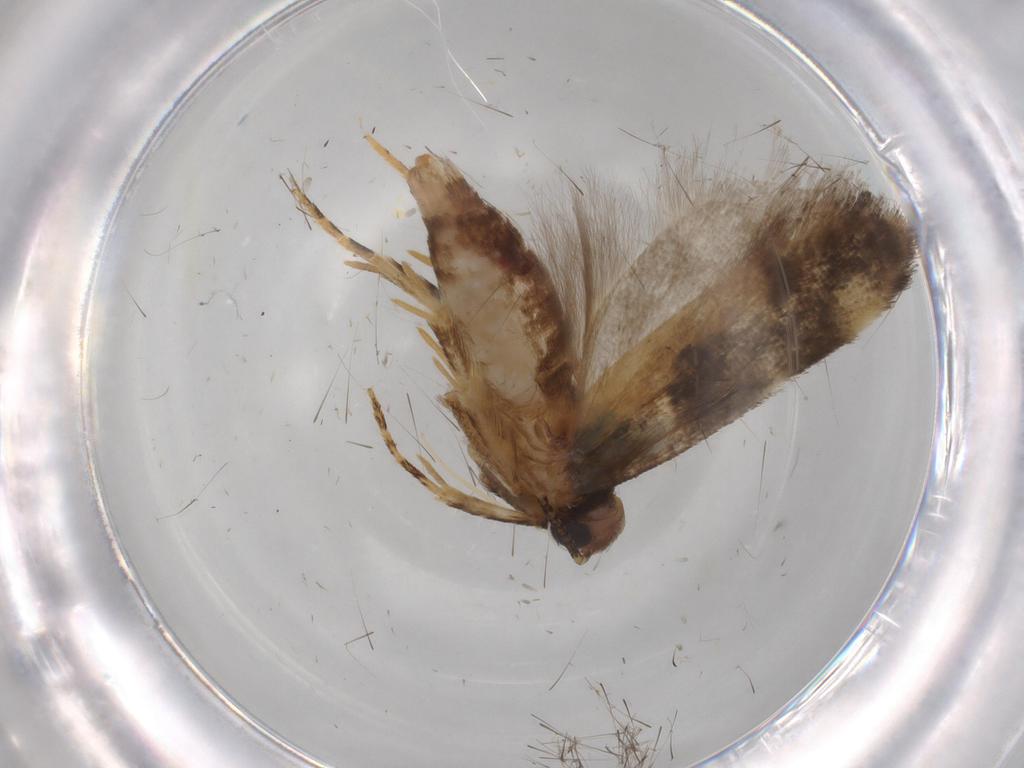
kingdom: Animalia
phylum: Arthropoda
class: Insecta
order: Lepidoptera
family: Gelechiidae
